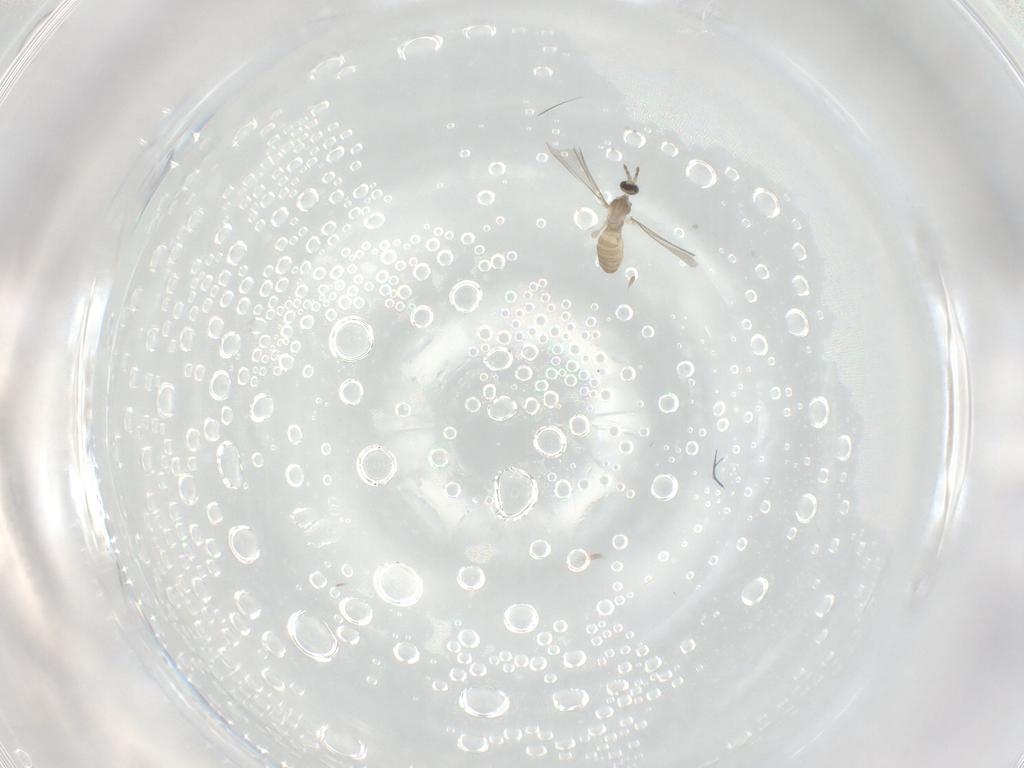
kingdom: Animalia
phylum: Arthropoda
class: Insecta
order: Diptera
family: Cecidomyiidae
